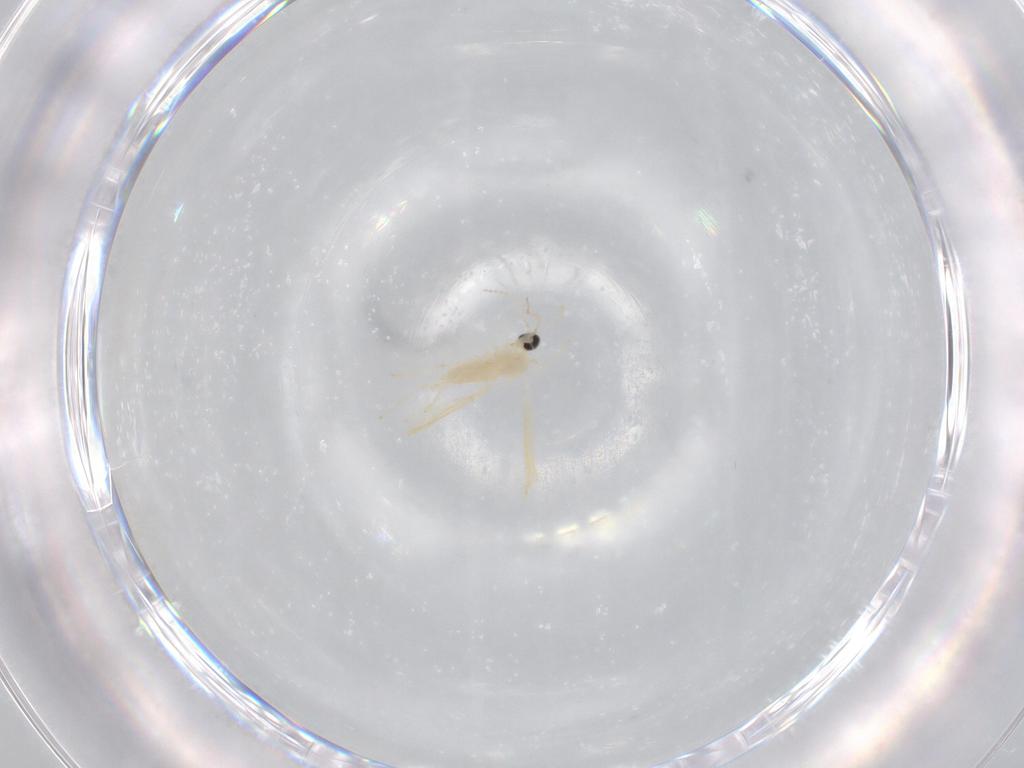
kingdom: Animalia
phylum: Arthropoda
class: Insecta
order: Diptera
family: Cecidomyiidae
